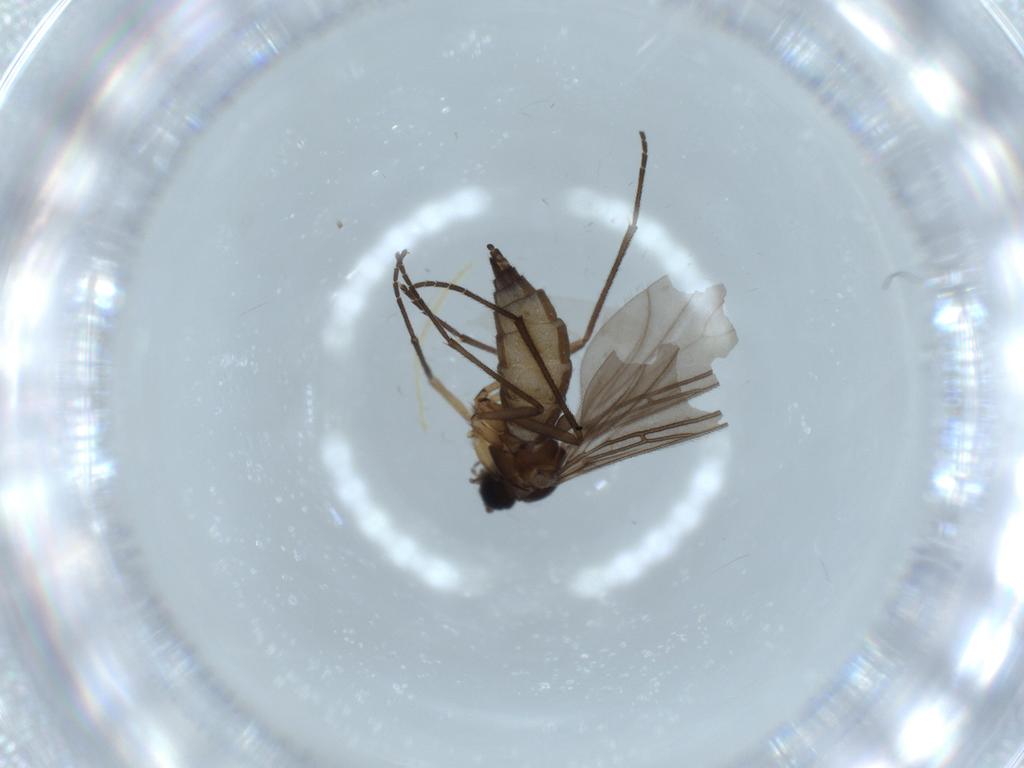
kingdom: Animalia
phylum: Arthropoda
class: Insecta
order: Diptera
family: Sciaridae
